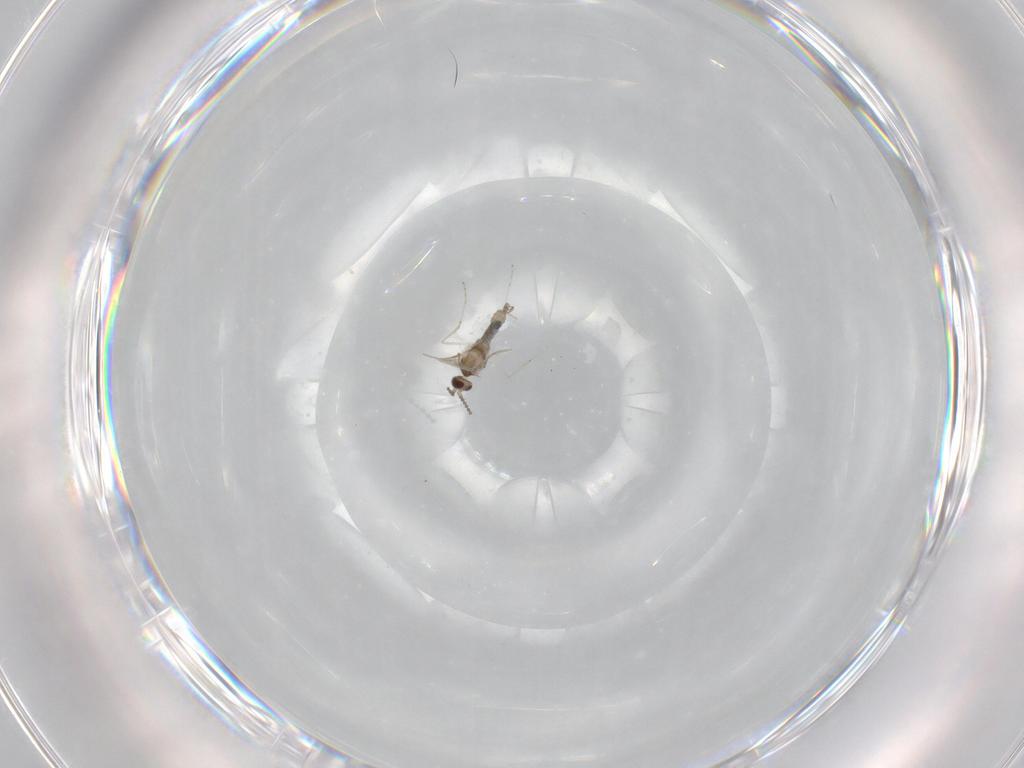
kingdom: Animalia
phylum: Arthropoda
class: Insecta
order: Diptera
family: Cecidomyiidae
